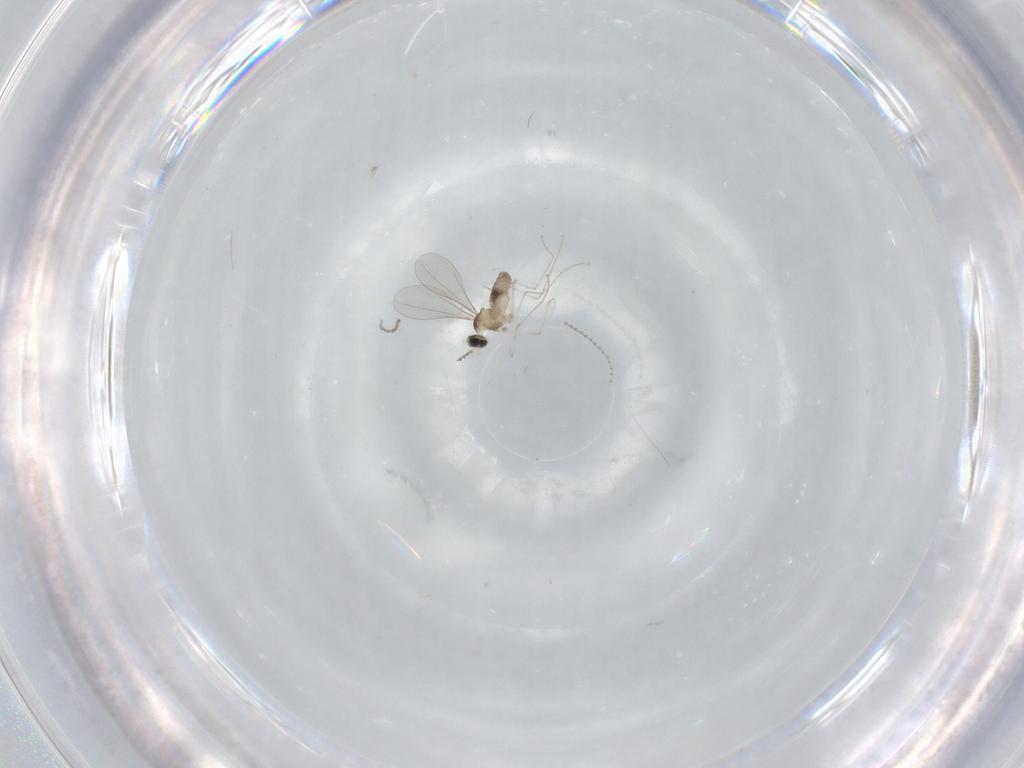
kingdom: Animalia
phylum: Arthropoda
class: Insecta
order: Diptera
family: Cecidomyiidae
